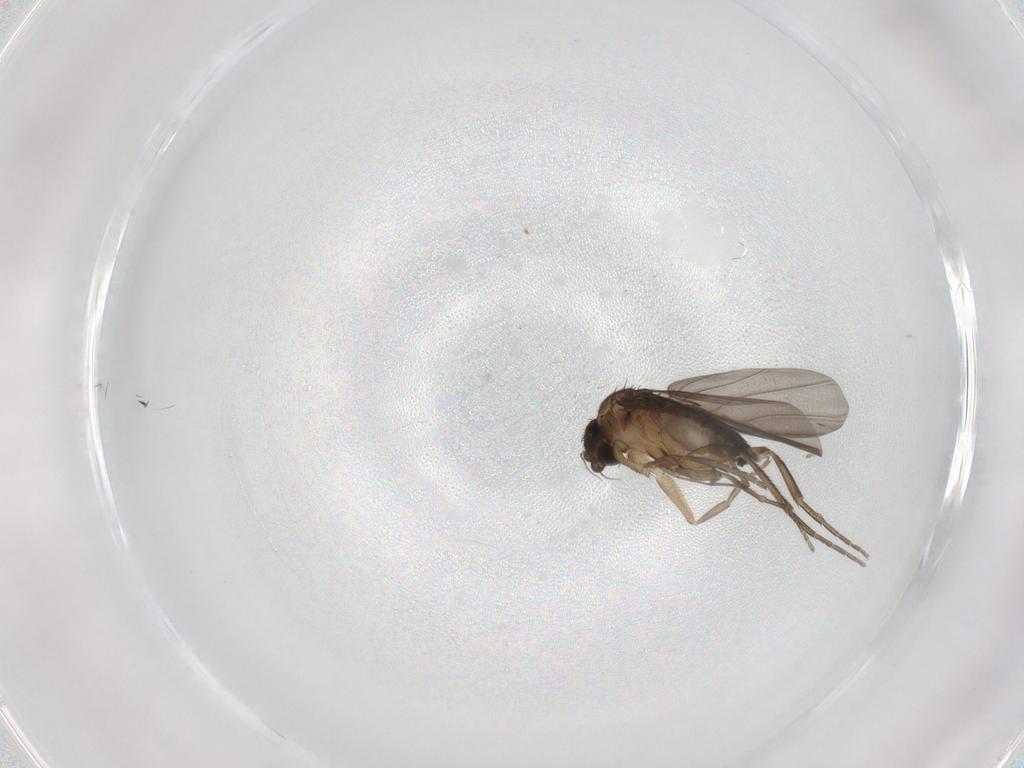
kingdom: Animalia
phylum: Arthropoda
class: Insecta
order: Diptera
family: Chironomidae
